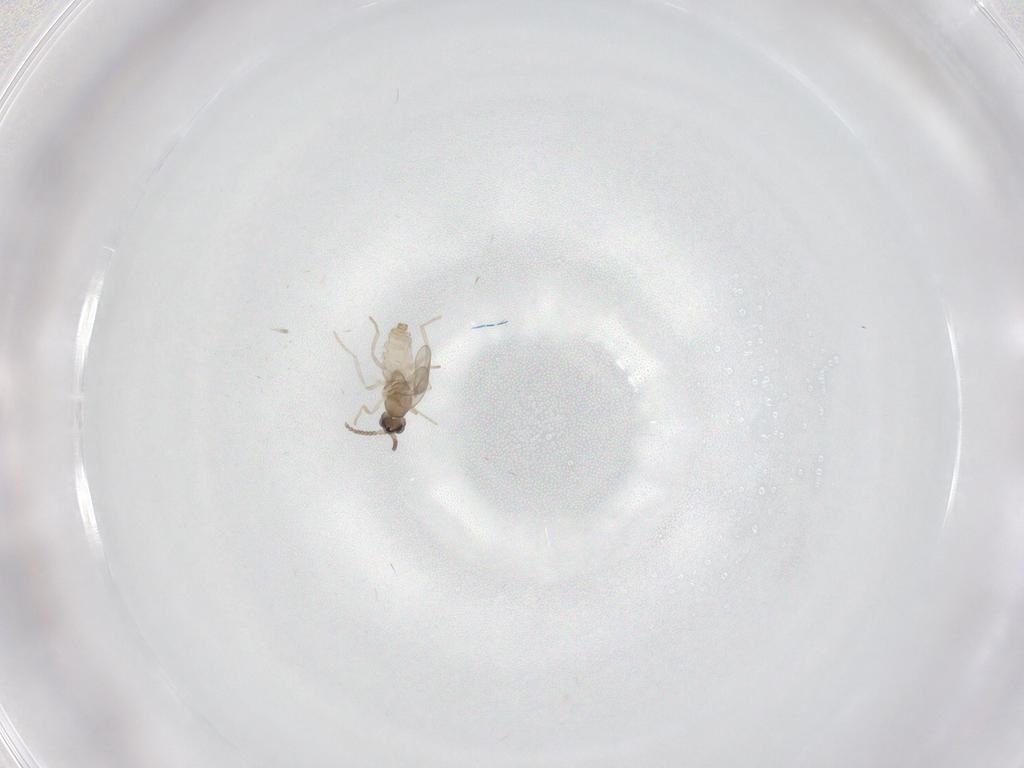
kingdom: Animalia
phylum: Arthropoda
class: Insecta
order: Diptera
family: Cecidomyiidae
